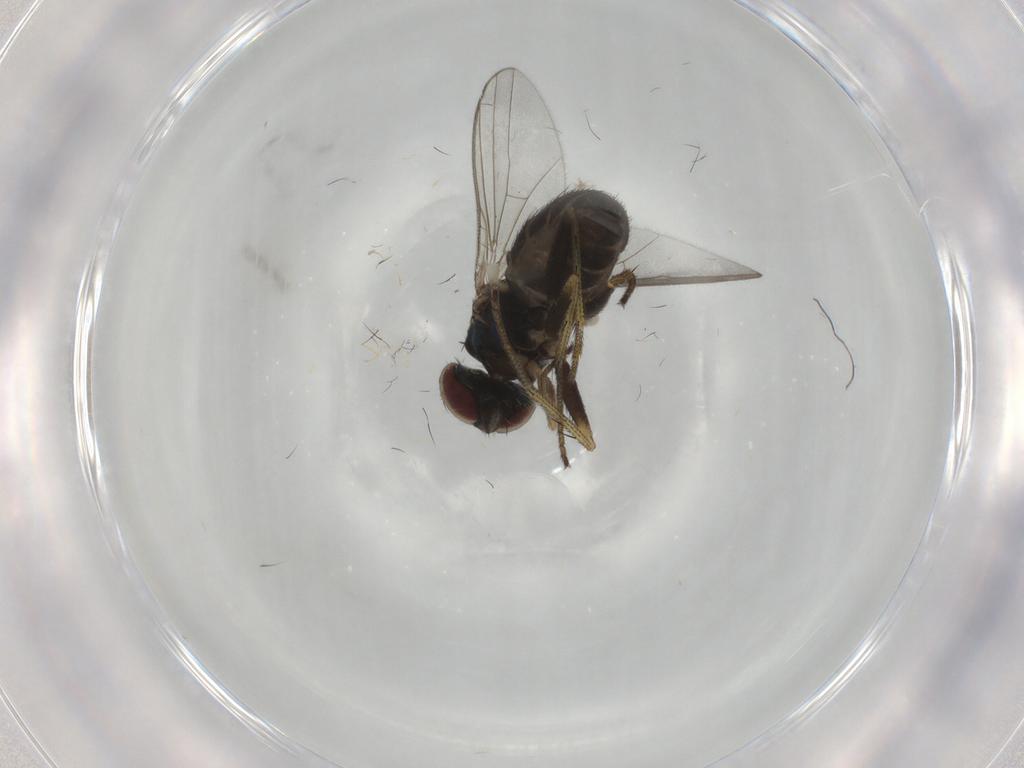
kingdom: Animalia
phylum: Arthropoda
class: Insecta
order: Diptera
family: Dolichopodidae
